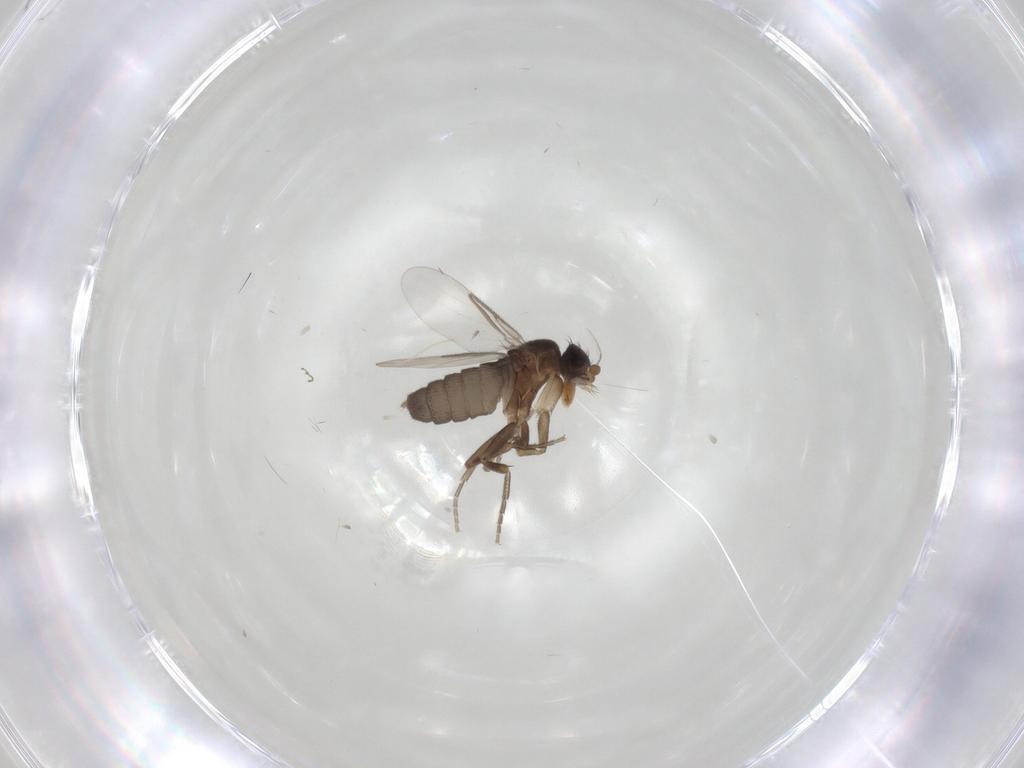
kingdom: Animalia
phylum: Arthropoda
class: Insecta
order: Diptera
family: Phoridae
